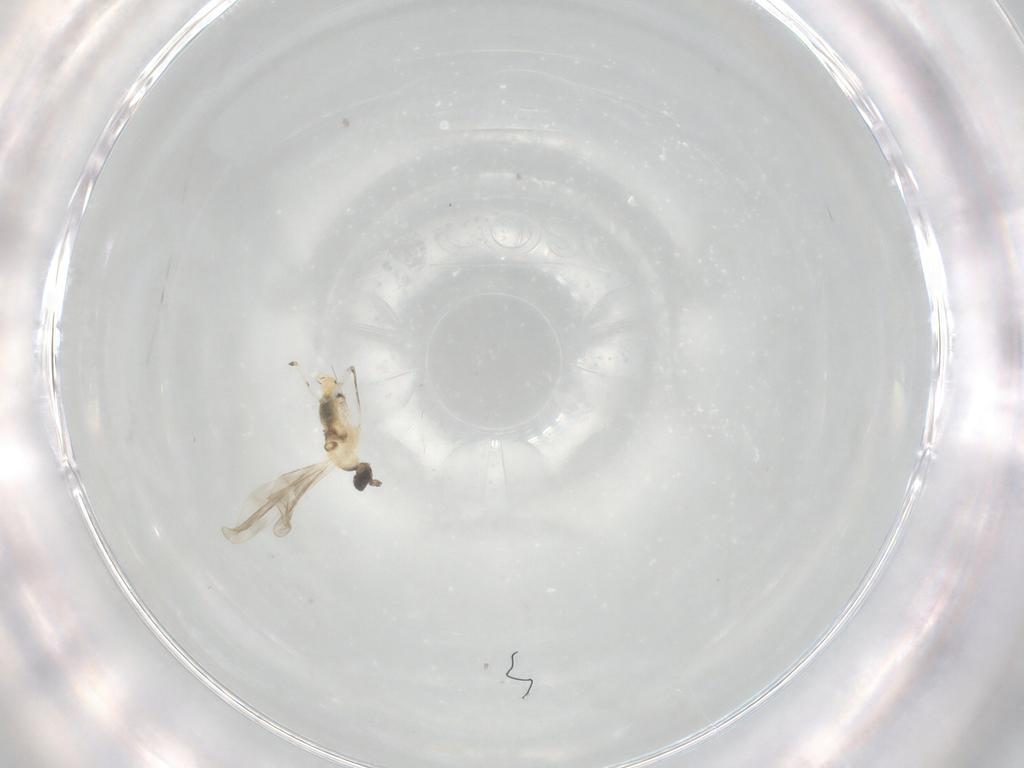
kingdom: Animalia
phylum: Arthropoda
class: Insecta
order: Diptera
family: Cecidomyiidae
